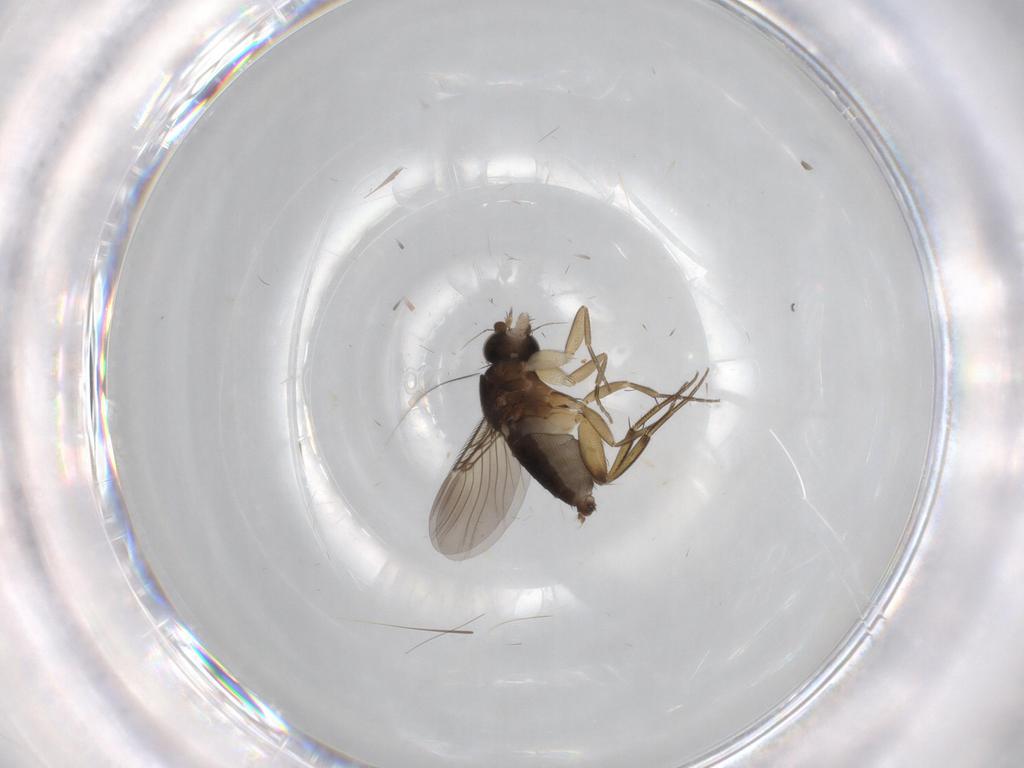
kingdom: Animalia
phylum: Arthropoda
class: Insecta
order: Diptera
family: Phoridae
